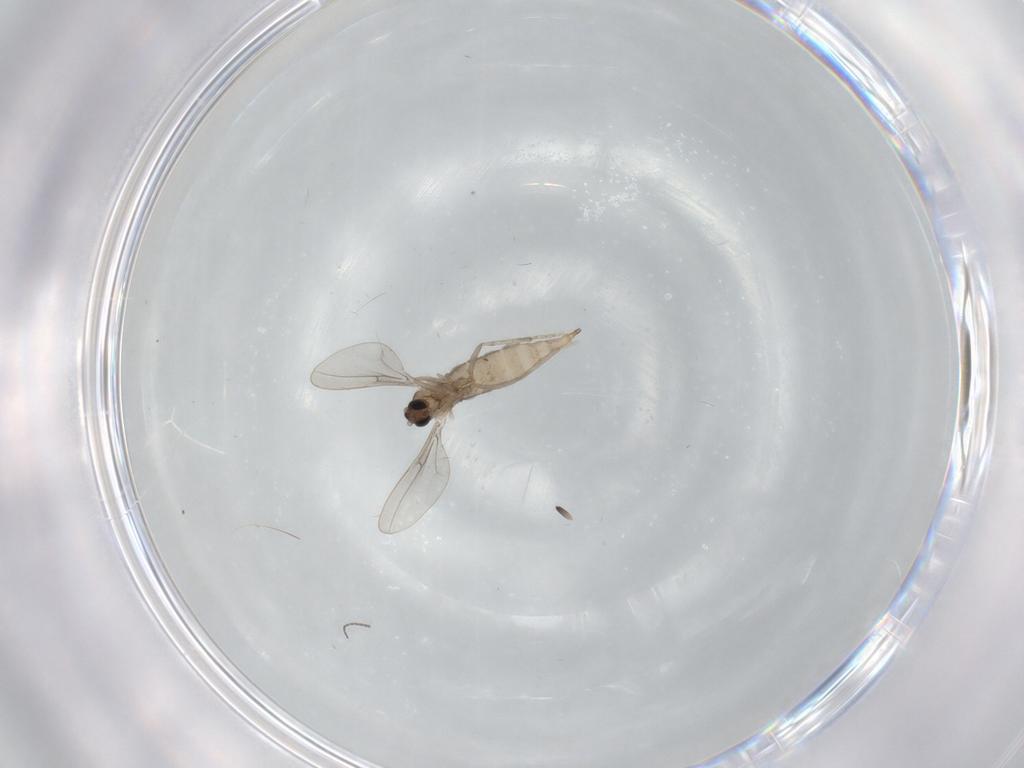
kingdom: Animalia
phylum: Arthropoda
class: Insecta
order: Diptera
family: Cecidomyiidae
